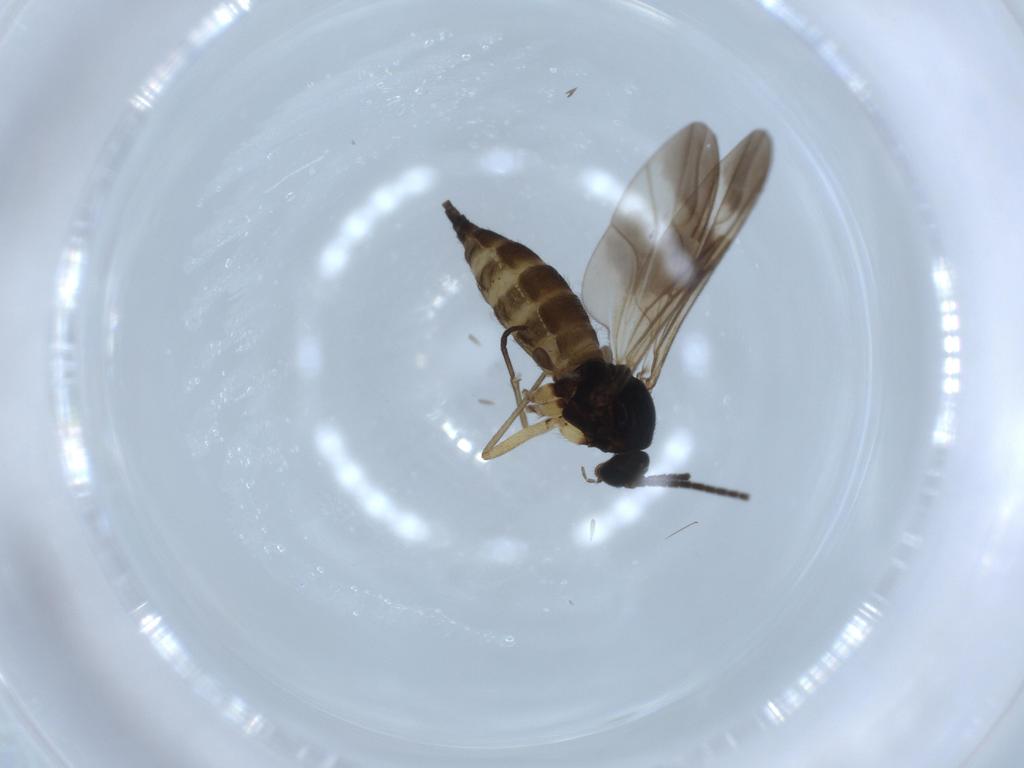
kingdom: Animalia
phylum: Arthropoda
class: Insecta
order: Diptera
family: Sciaridae
